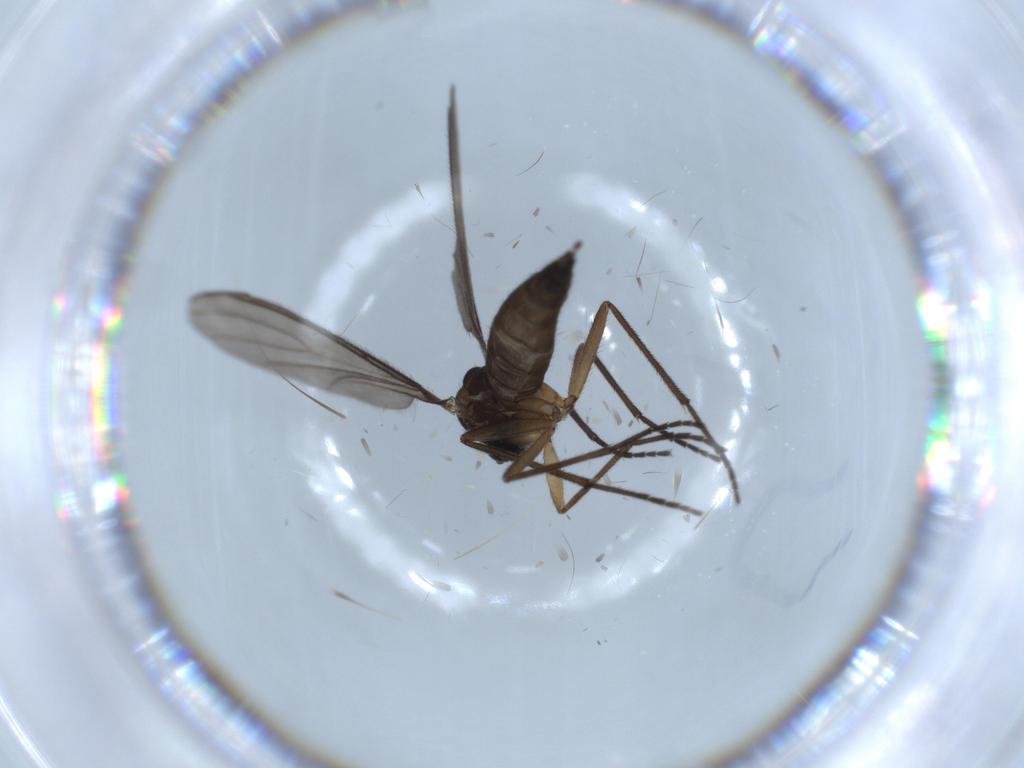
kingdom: Animalia
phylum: Arthropoda
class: Insecta
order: Diptera
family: Sciaridae
